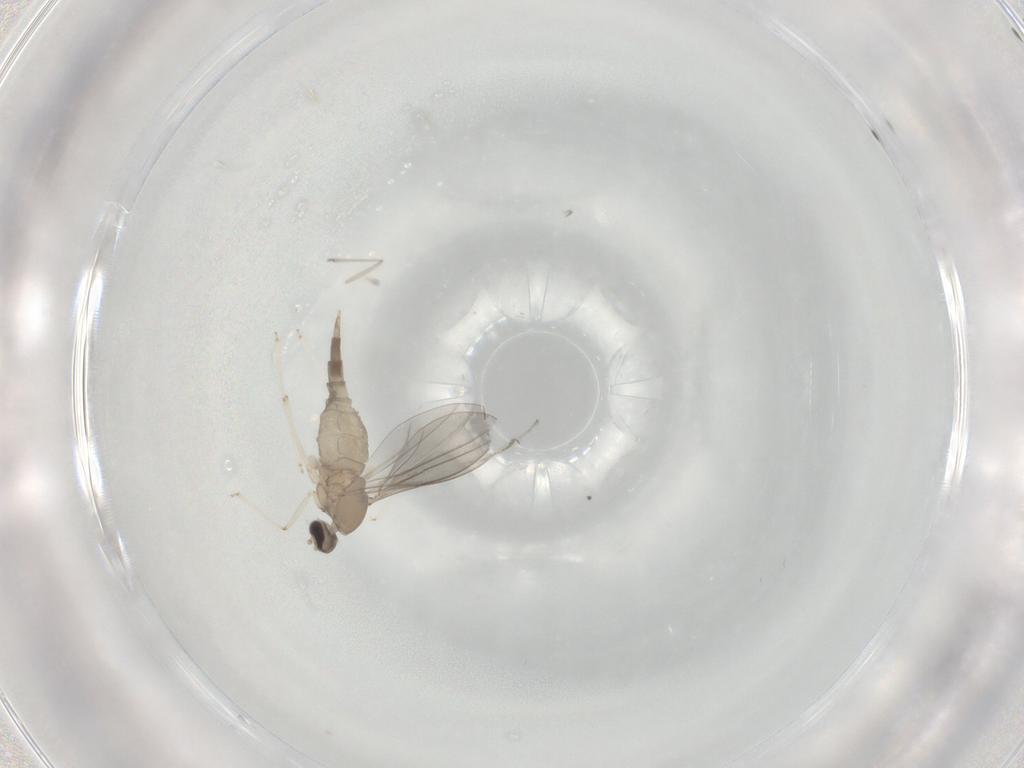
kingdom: Animalia
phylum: Arthropoda
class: Insecta
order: Diptera
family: Cecidomyiidae
